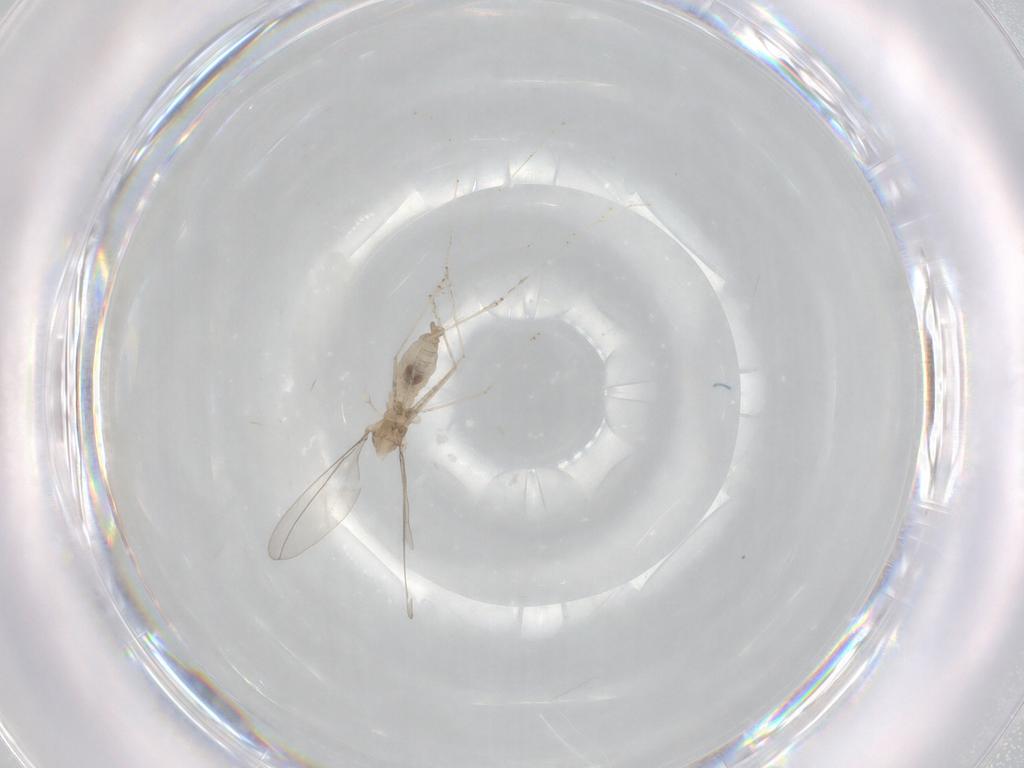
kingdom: Animalia
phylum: Arthropoda
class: Insecta
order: Diptera
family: Cecidomyiidae
